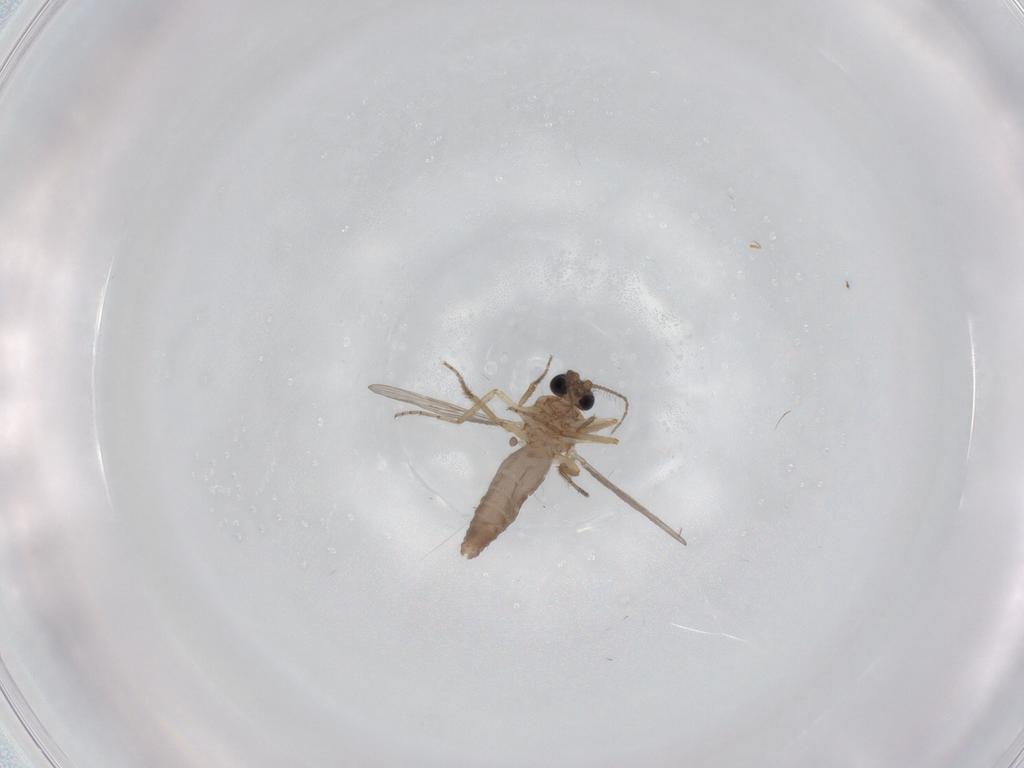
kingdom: Animalia
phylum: Arthropoda
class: Insecta
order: Diptera
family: Ceratopogonidae
